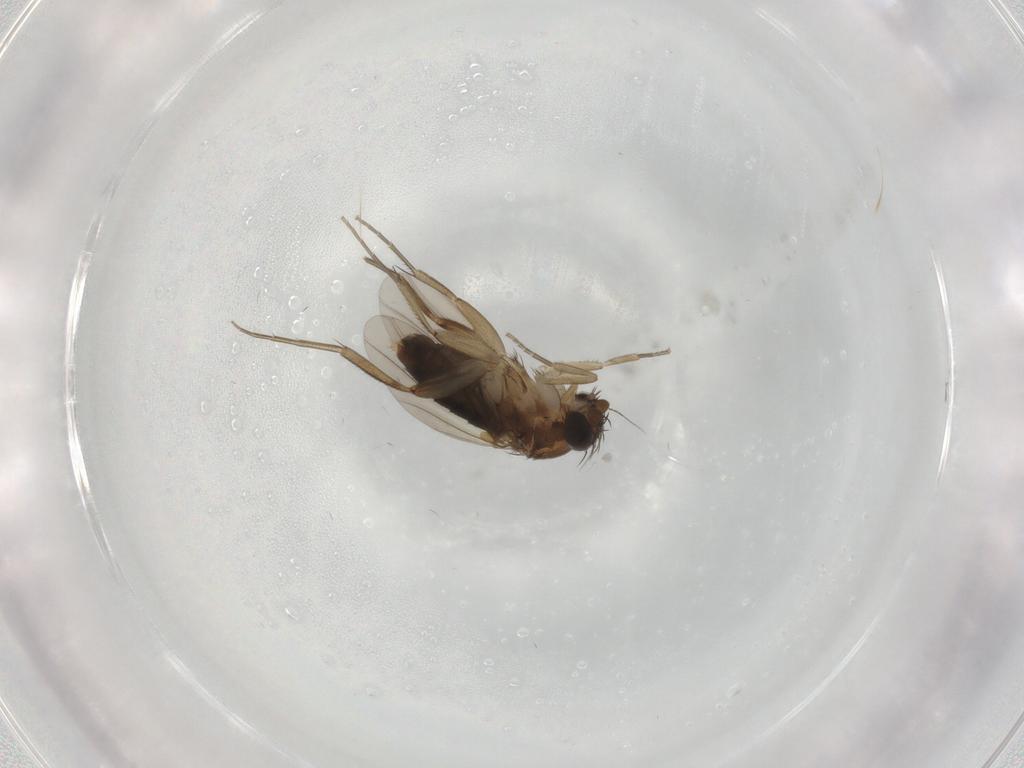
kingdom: Animalia
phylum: Arthropoda
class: Insecta
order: Diptera
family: Phoridae
